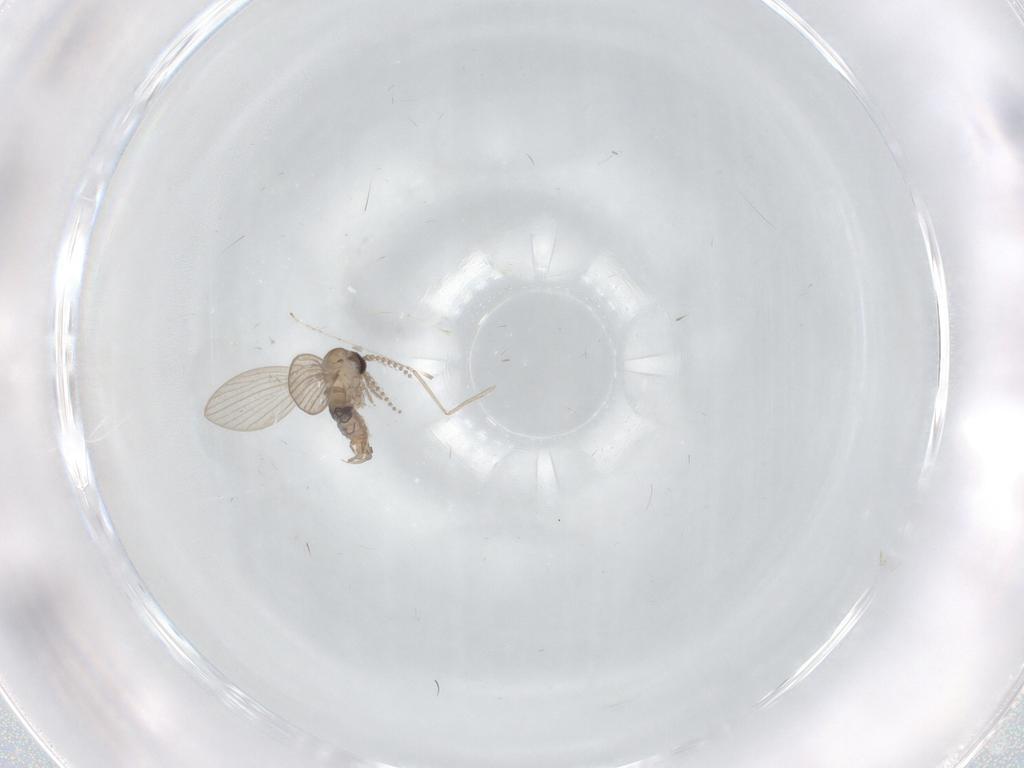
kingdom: Animalia
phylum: Arthropoda
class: Insecta
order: Diptera
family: Psychodidae
